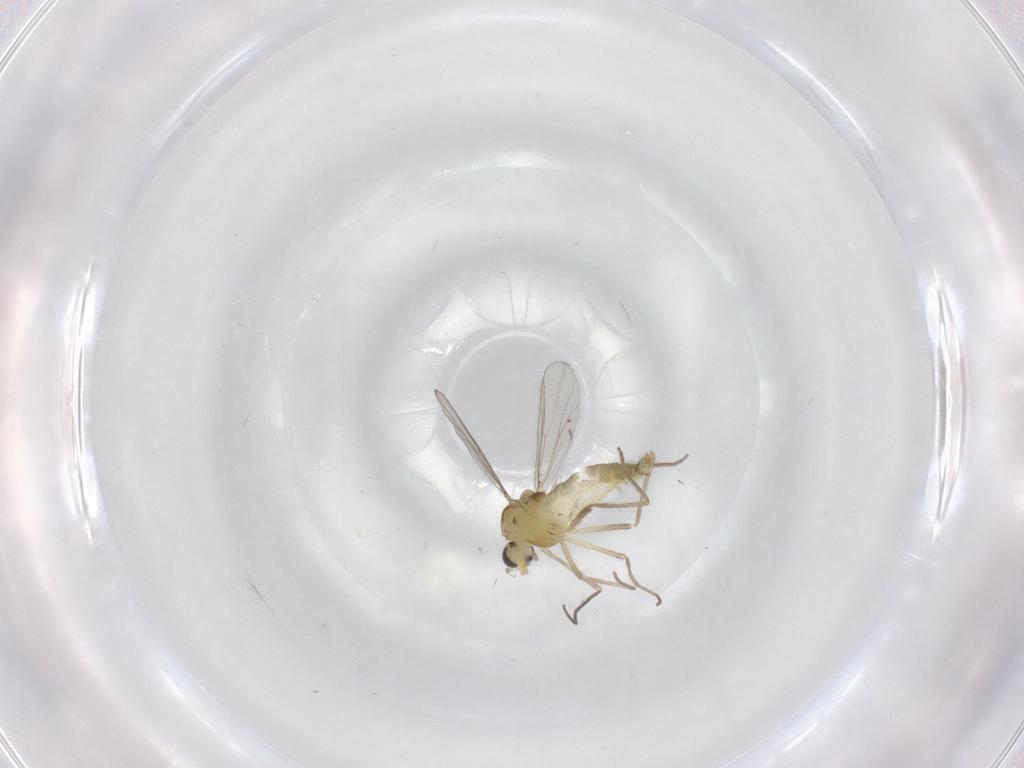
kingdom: Animalia
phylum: Arthropoda
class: Insecta
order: Diptera
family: Chironomidae
